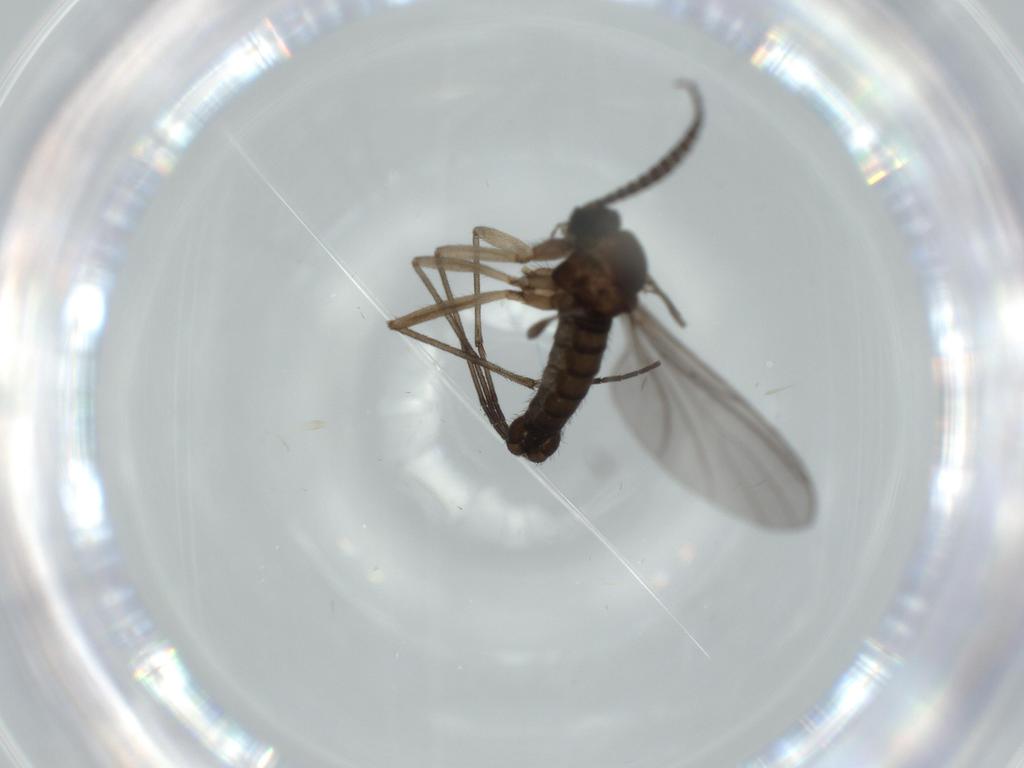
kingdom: Animalia
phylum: Arthropoda
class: Insecta
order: Diptera
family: Sciaridae
